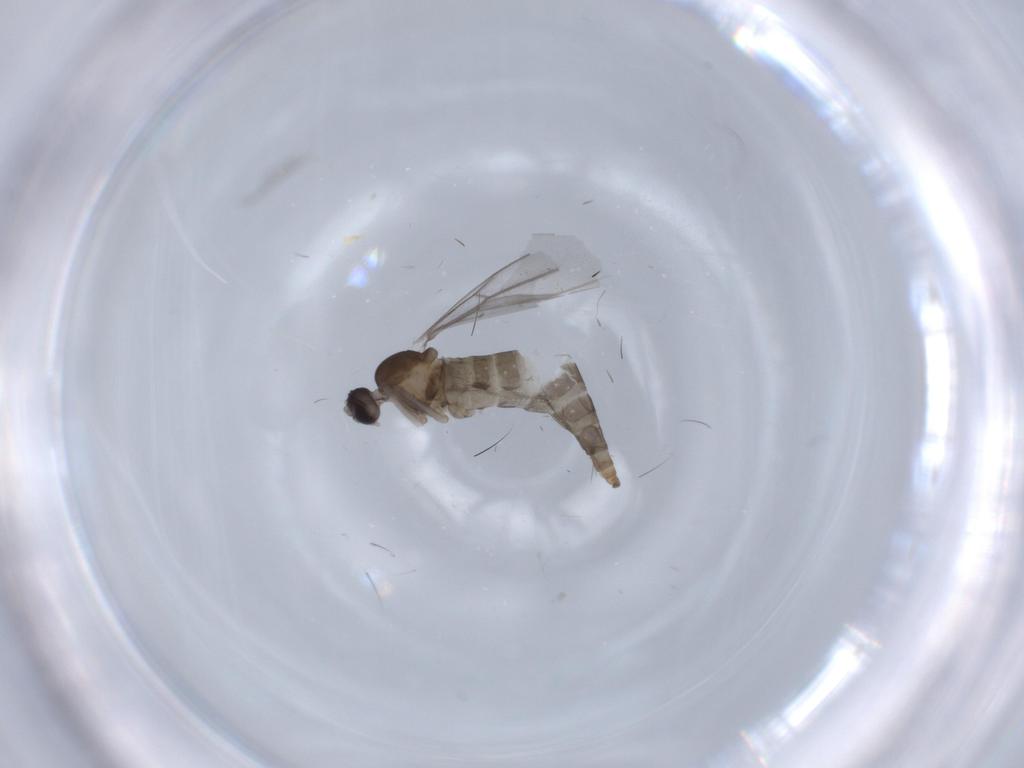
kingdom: Animalia
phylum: Arthropoda
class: Insecta
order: Diptera
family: Cecidomyiidae
